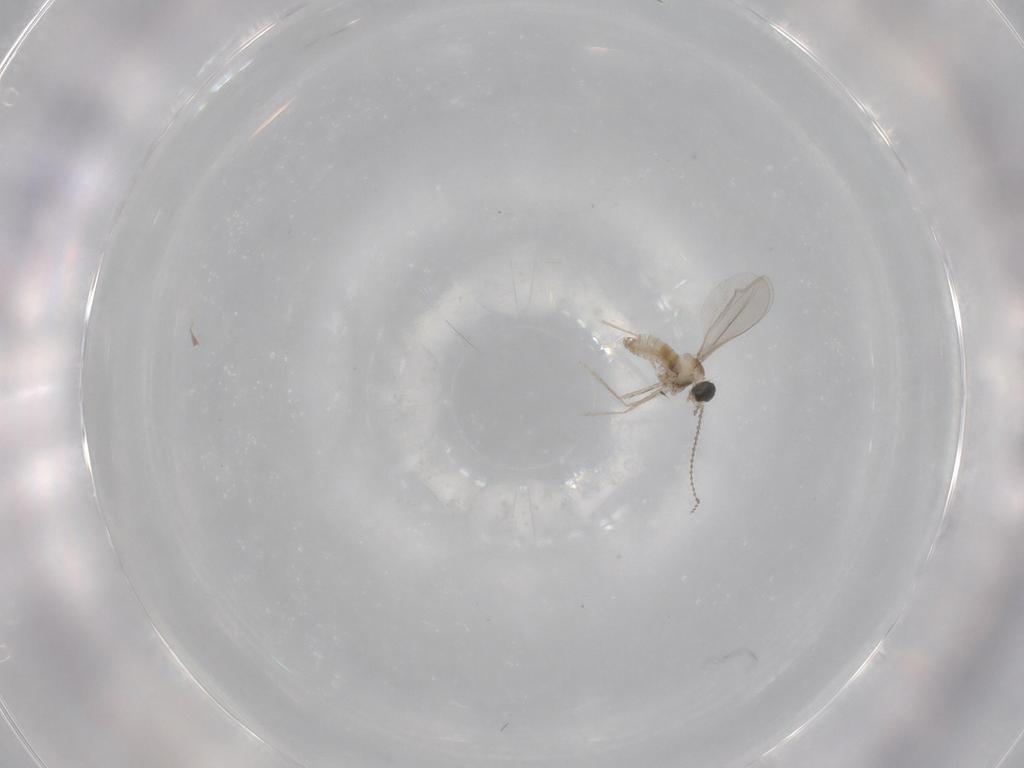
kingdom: Animalia
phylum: Arthropoda
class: Insecta
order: Diptera
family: Cecidomyiidae
